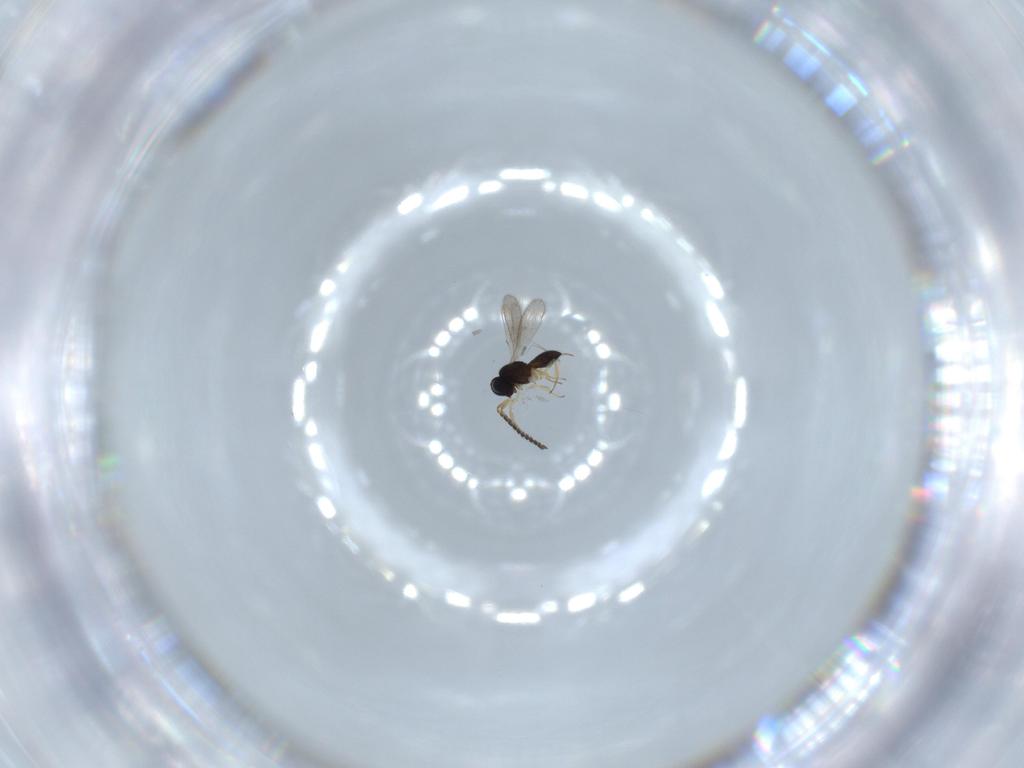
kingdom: Animalia
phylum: Arthropoda
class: Insecta
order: Hymenoptera
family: Scelionidae
